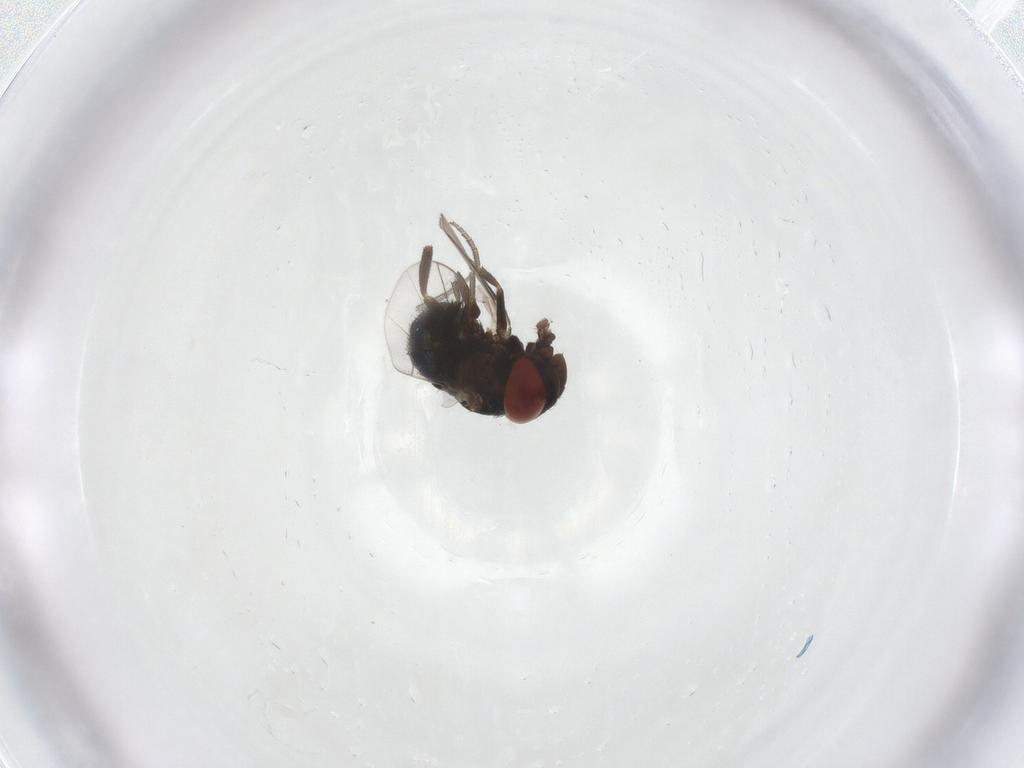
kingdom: Animalia
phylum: Arthropoda
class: Insecta
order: Diptera
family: Cryptochetidae
